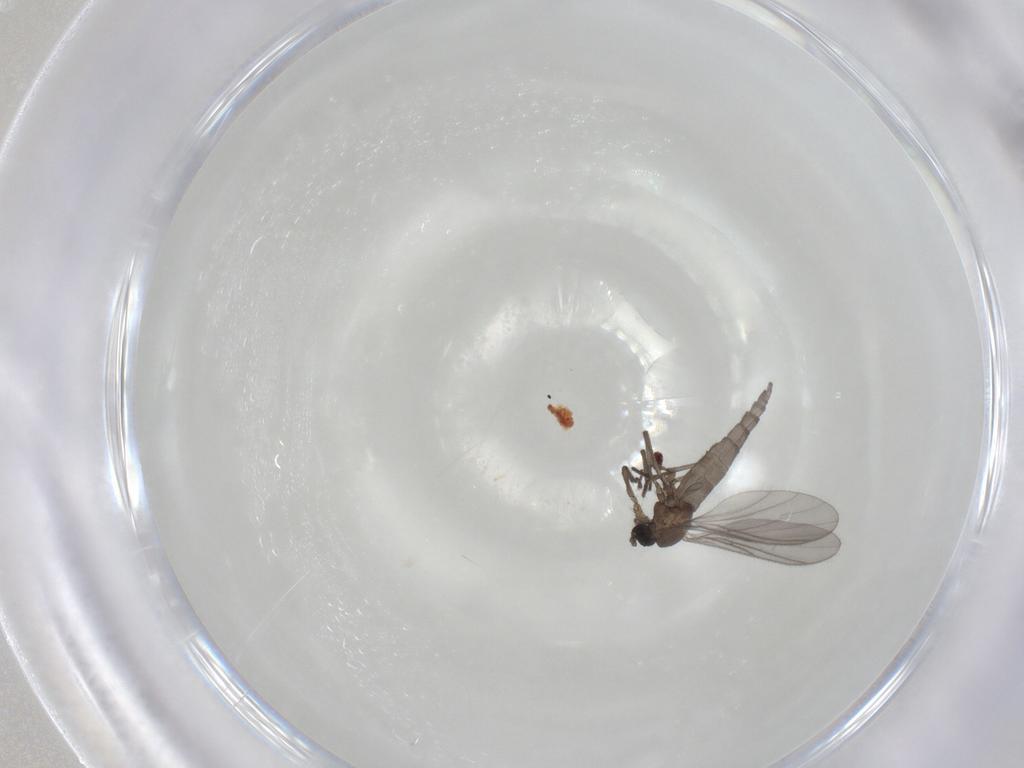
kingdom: Animalia
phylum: Arthropoda
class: Insecta
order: Diptera
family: Sciaridae
